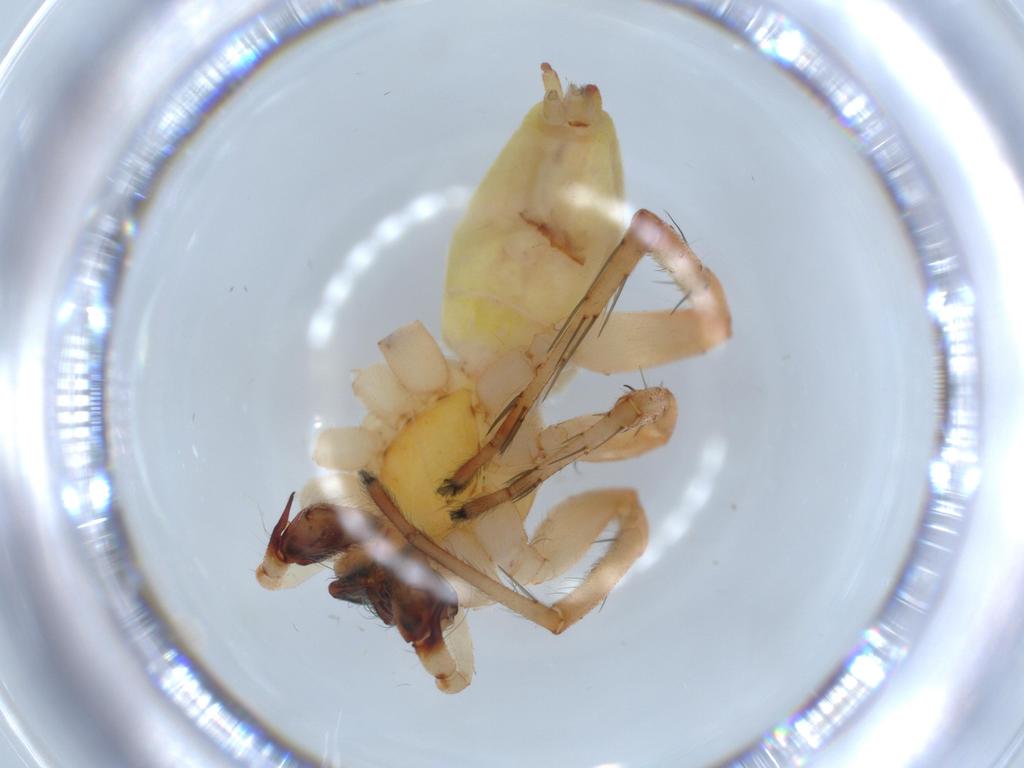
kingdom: Animalia
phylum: Arthropoda
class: Arachnida
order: Araneae
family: Anyphaenidae
